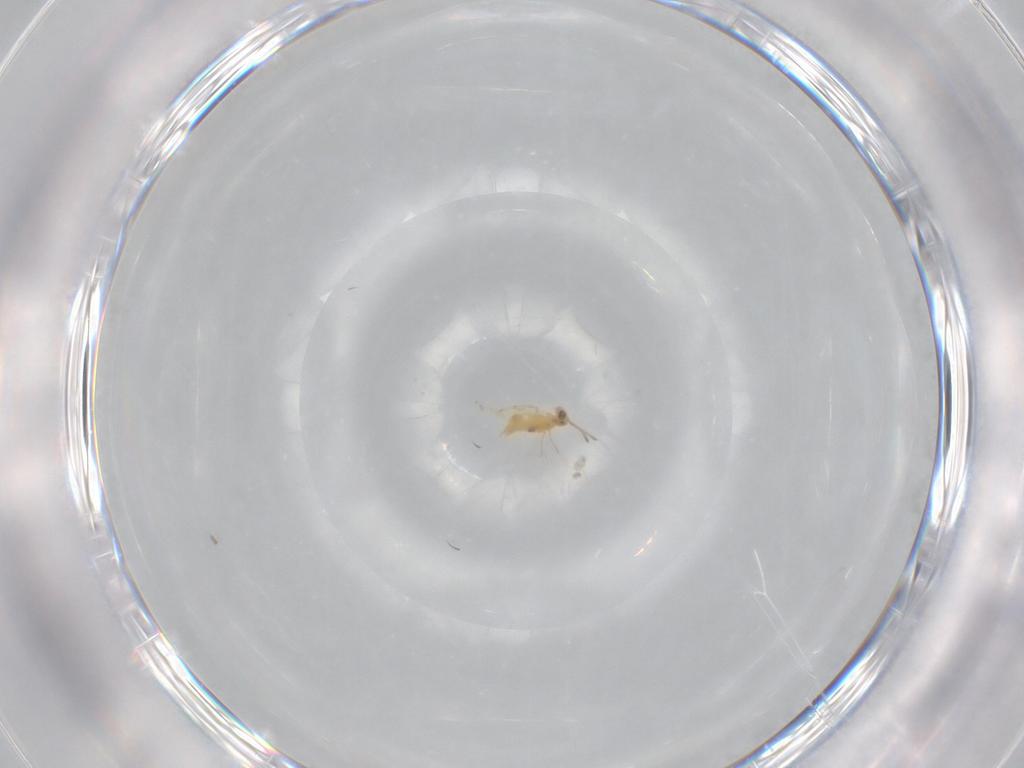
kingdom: Animalia
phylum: Arthropoda
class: Insecta
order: Hymenoptera
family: Aphelinidae
